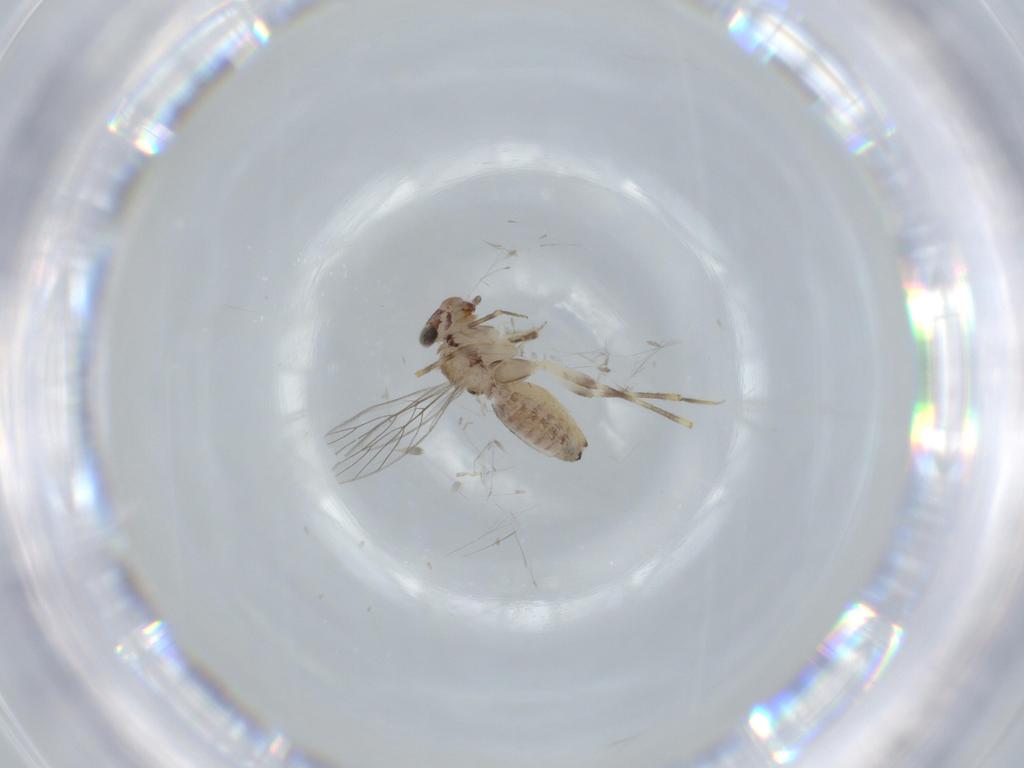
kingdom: Animalia
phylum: Arthropoda
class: Insecta
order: Psocodea
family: Lepidopsocidae
